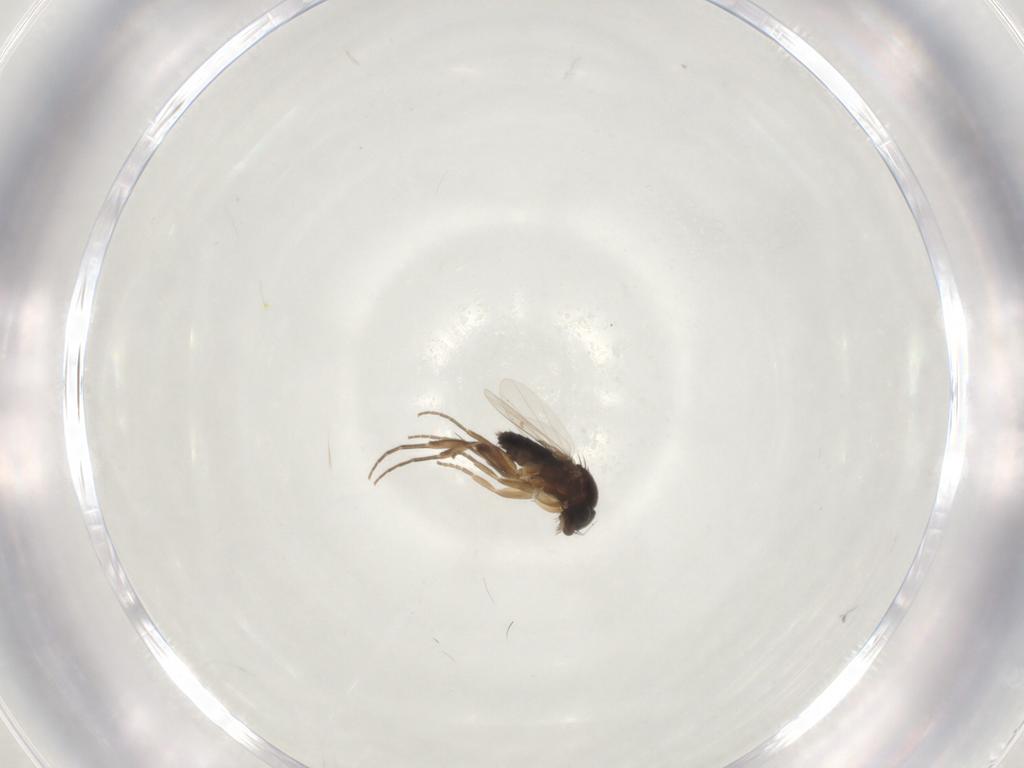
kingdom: Animalia
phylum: Arthropoda
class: Insecta
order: Diptera
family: Phoridae
